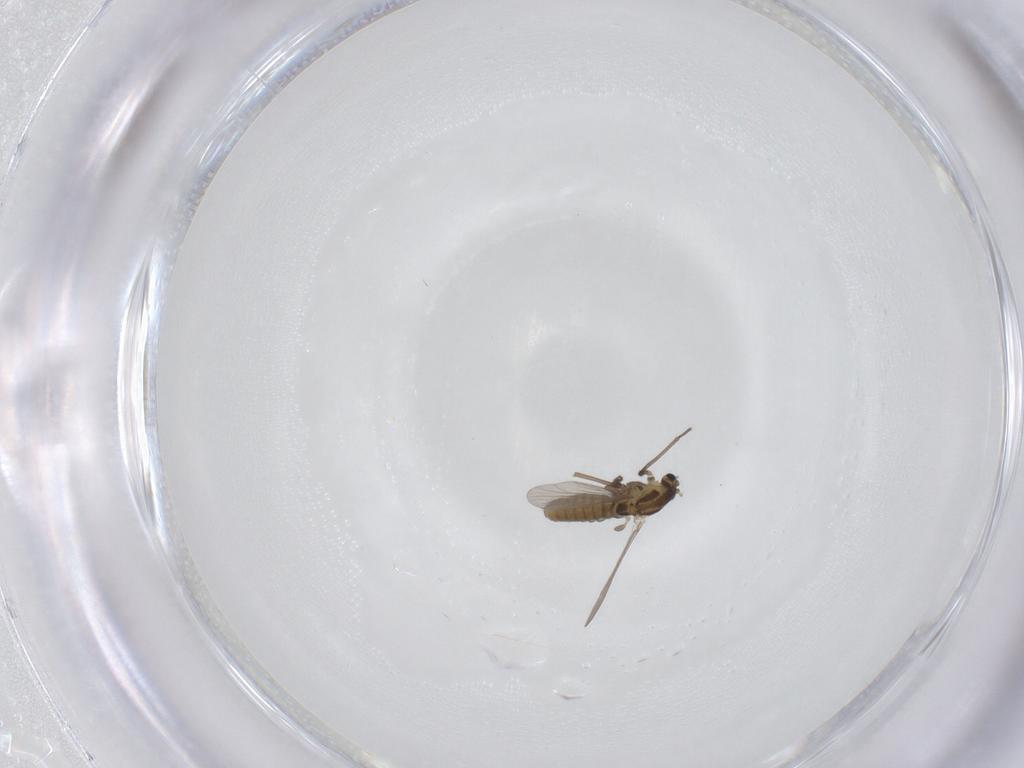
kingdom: Animalia
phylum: Arthropoda
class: Insecta
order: Diptera
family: Chironomidae
